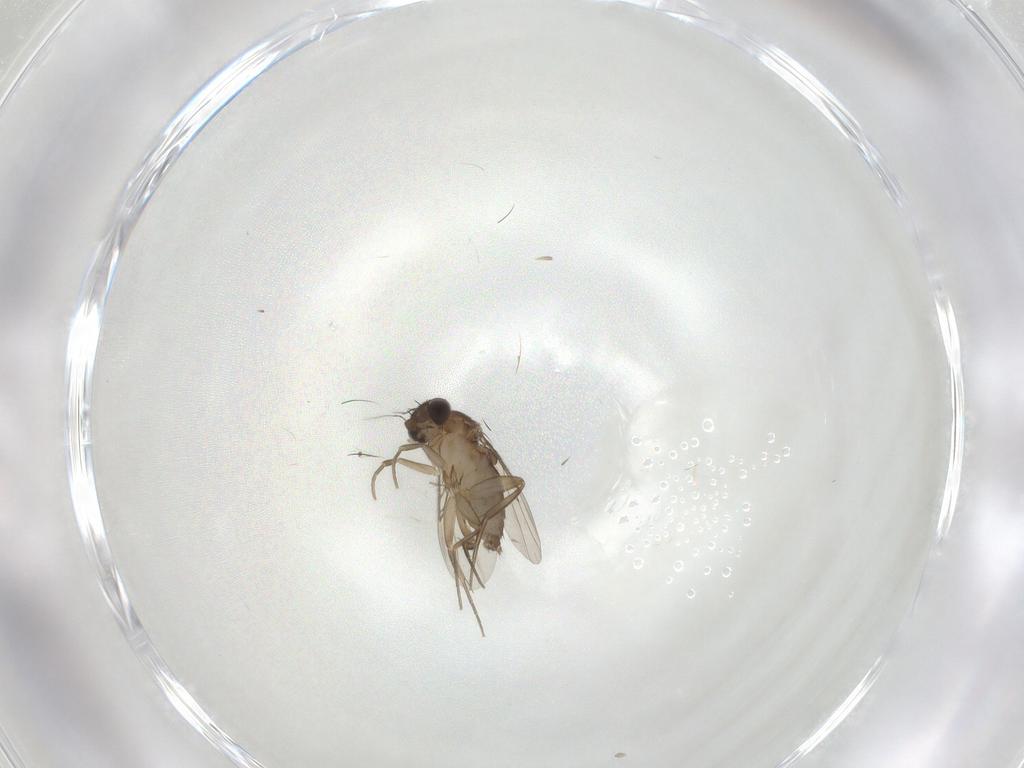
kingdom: Animalia
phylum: Arthropoda
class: Insecta
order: Diptera
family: Phoridae
